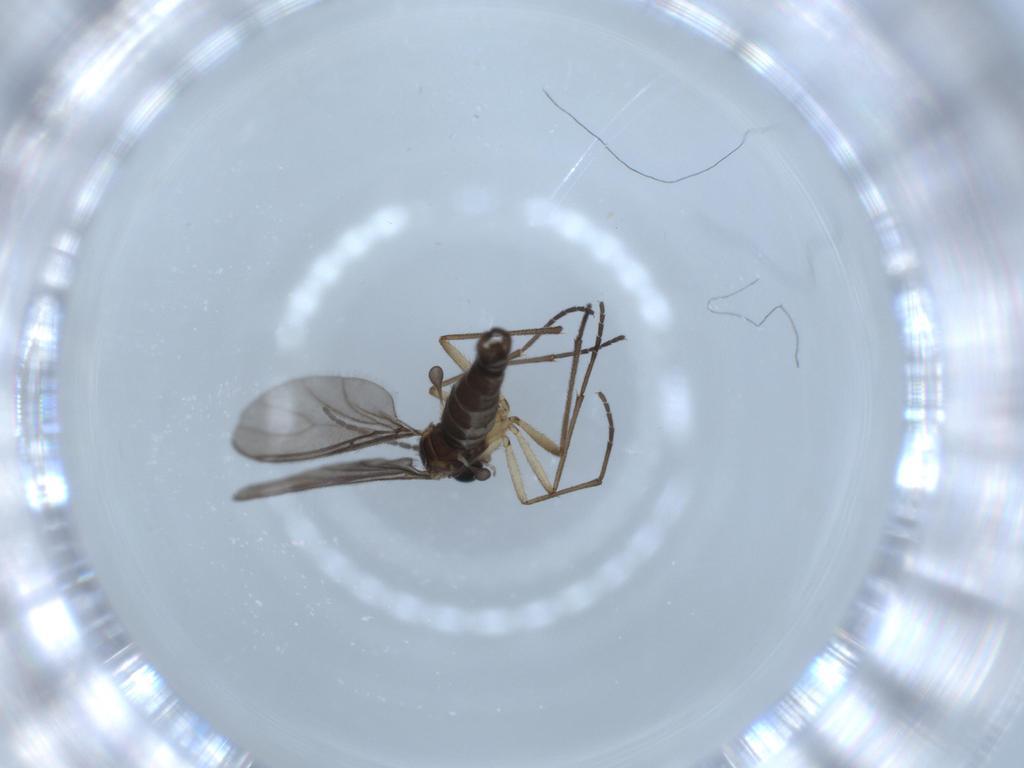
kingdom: Animalia
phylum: Arthropoda
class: Insecta
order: Diptera
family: Sciaridae
